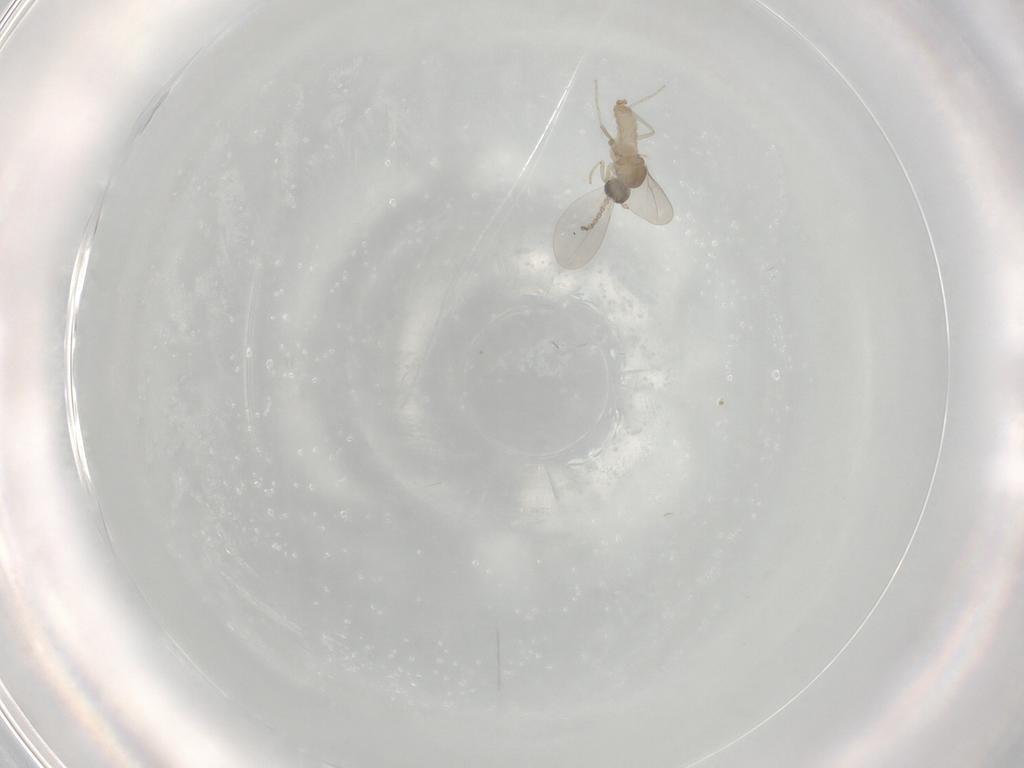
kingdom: Animalia
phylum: Arthropoda
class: Insecta
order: Diptera
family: Cecidomyiidae
